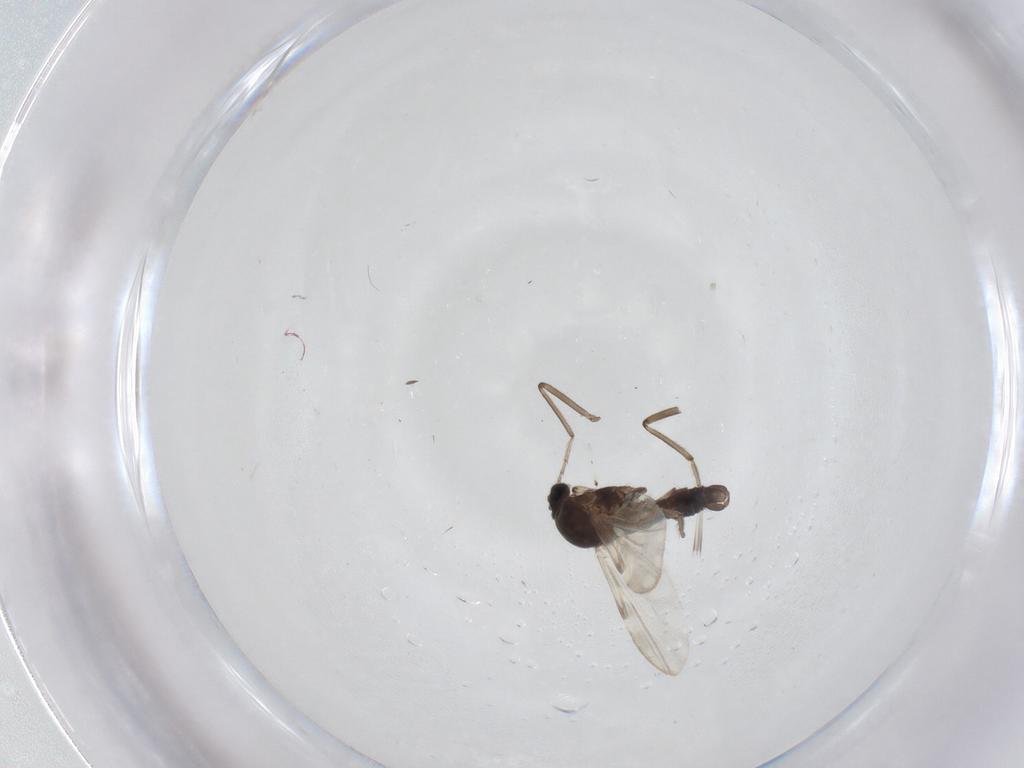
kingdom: Animalia
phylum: Arthropoda
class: Insecta
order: Diptera
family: Ceratopogonidae
